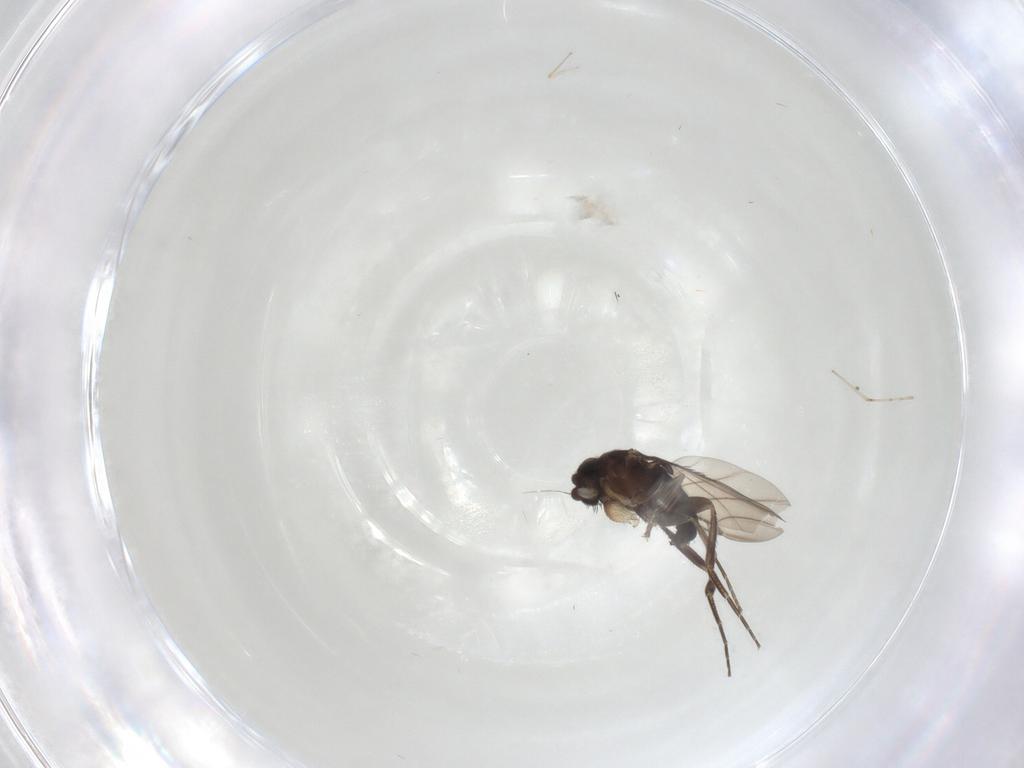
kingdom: Animalia
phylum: Arthropoda
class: Insecta
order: Diptera
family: Chironomidae
